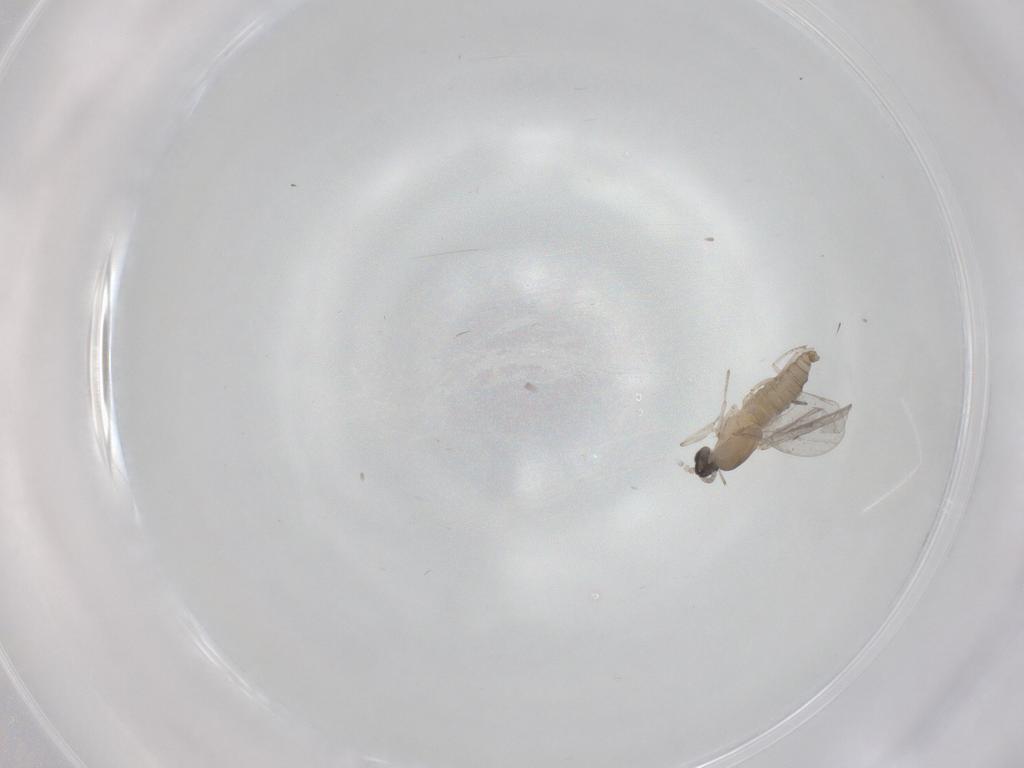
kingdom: Animalia
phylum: Arthropoda
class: Insecta
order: Diptera
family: Cecidomyiidae
